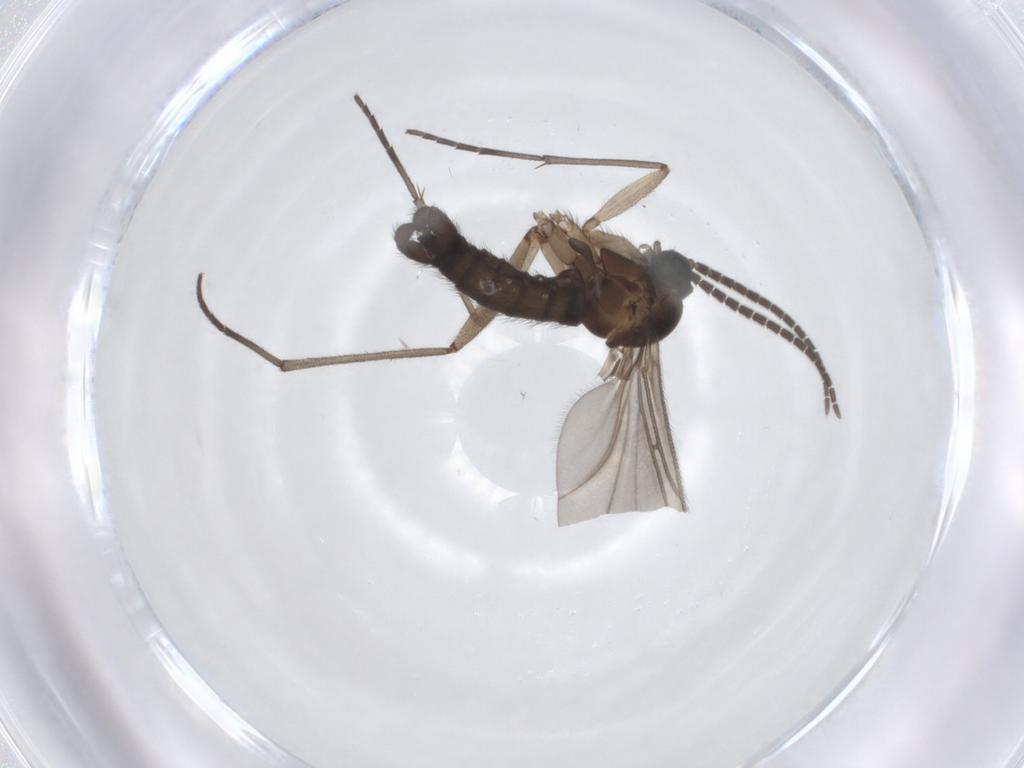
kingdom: Animalia
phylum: Arthropoda
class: Insecta
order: Diptera
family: Sciaridae
